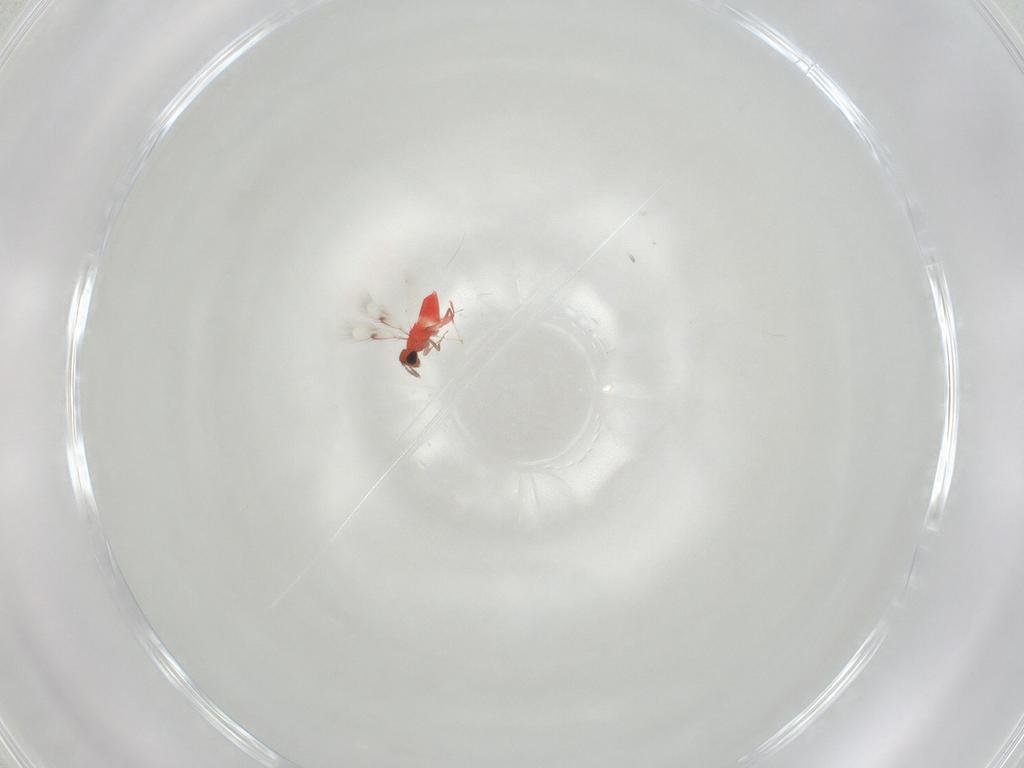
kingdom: Animalia
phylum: Arthropoda
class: Insecta
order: Hymenoptera
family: Trichogrammatidae
